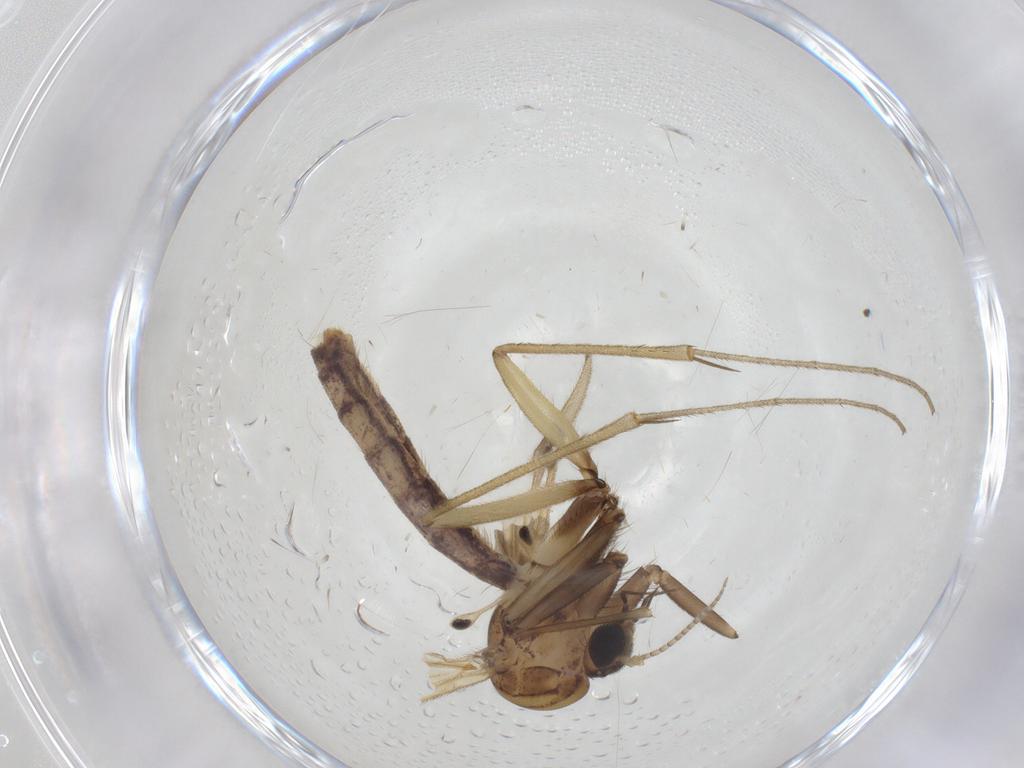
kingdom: Animalia
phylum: Arthropoda
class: Insecta
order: Diptera
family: Cecidomyiidae
